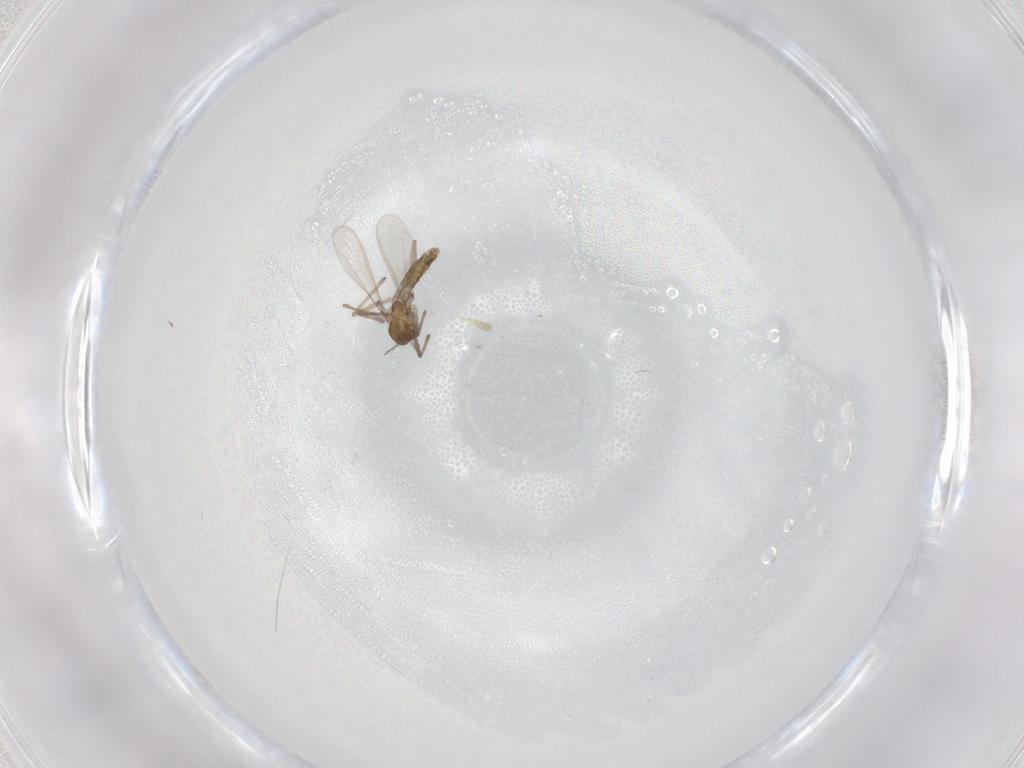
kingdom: Animalia
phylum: Arthropoda
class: Insecta
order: Diptera
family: Chironomidae
